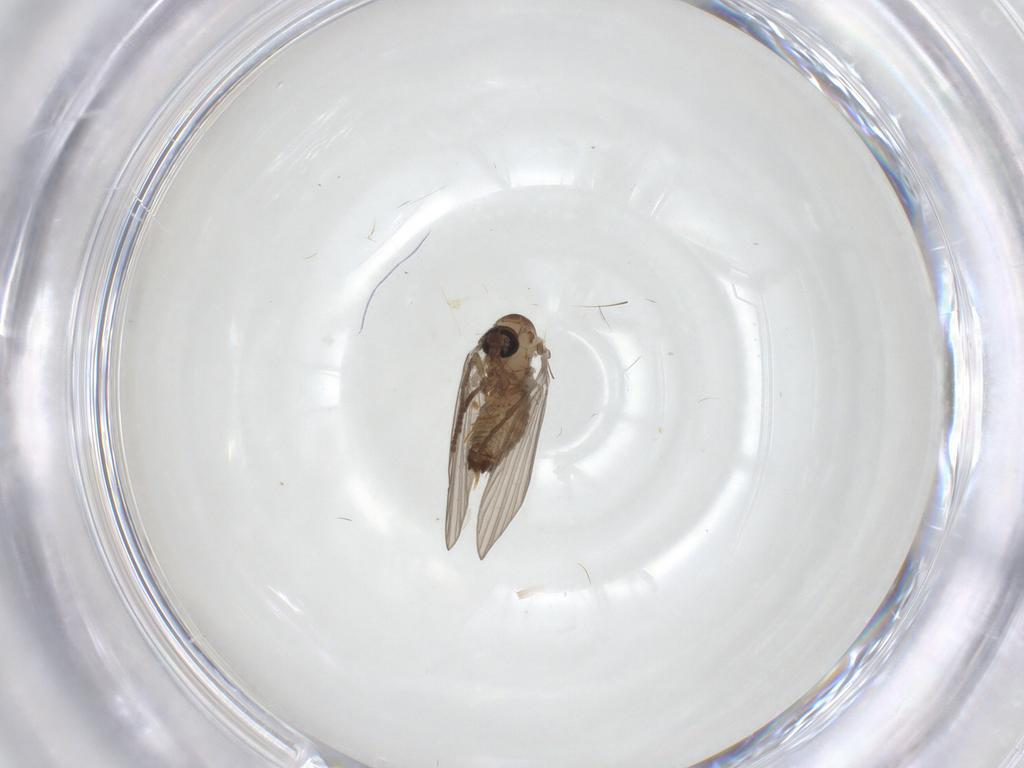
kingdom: Animalia
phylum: Arthropoda
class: Insecta
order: Diptera
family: Psychodidae
